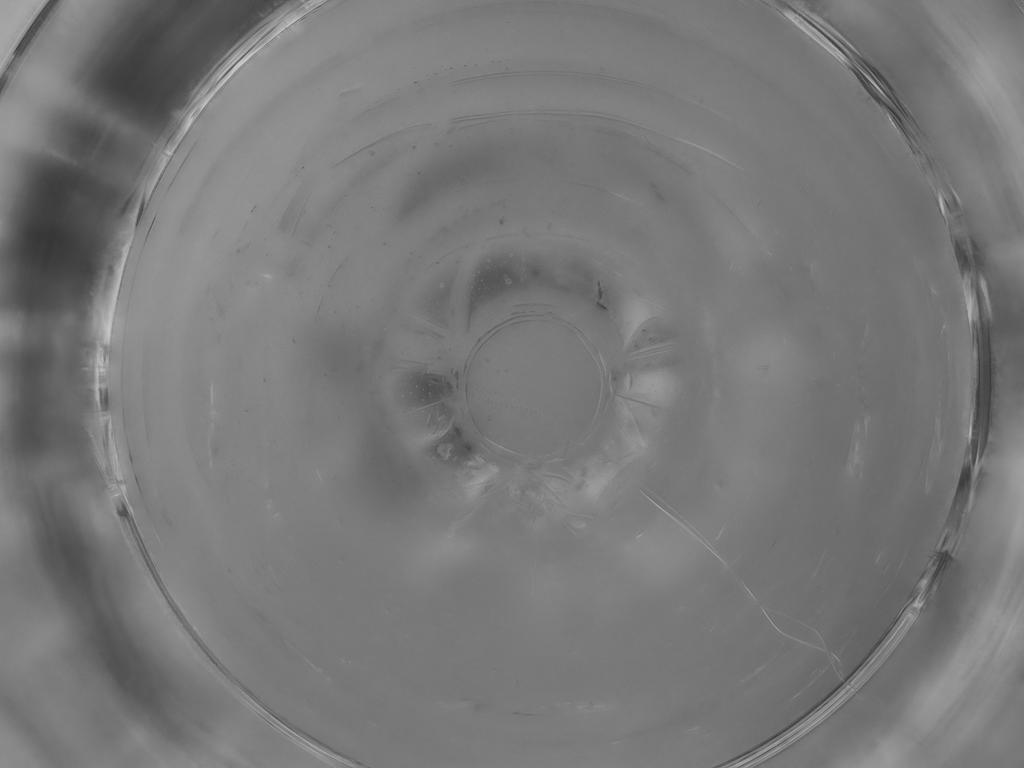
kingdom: Animalia
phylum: Arthropoda
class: Insecta
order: Diptera
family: Cecidomyiidae
